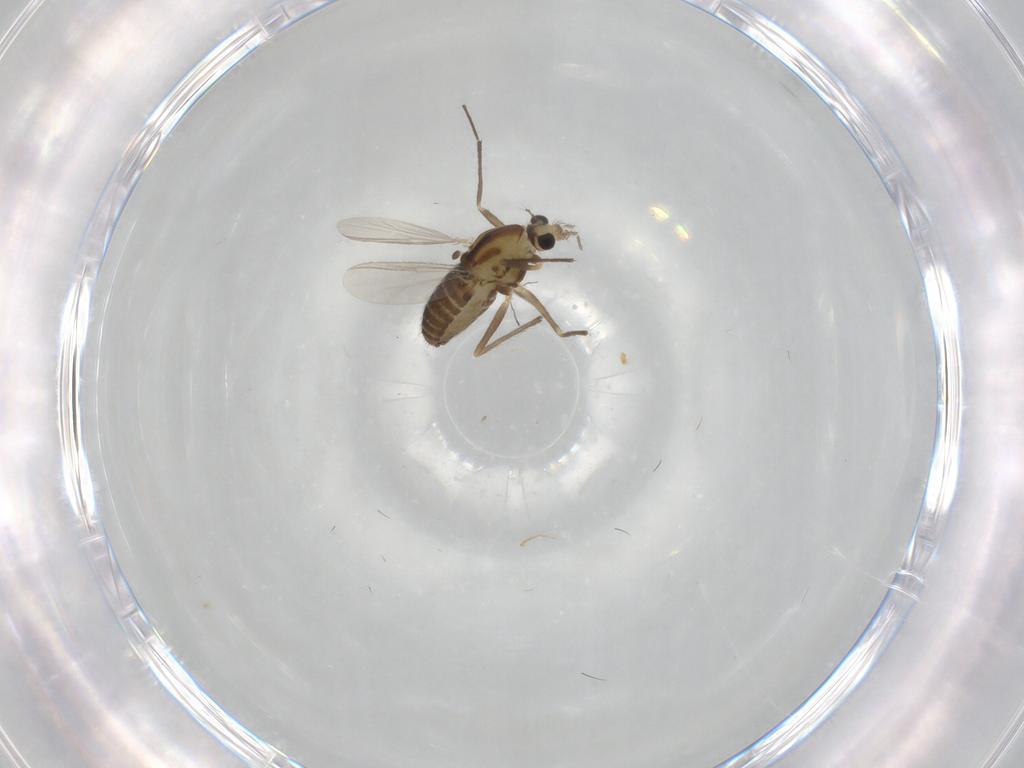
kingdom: Animalia
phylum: Arthropoda
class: Insecta
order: Diptera
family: Chironomidae
